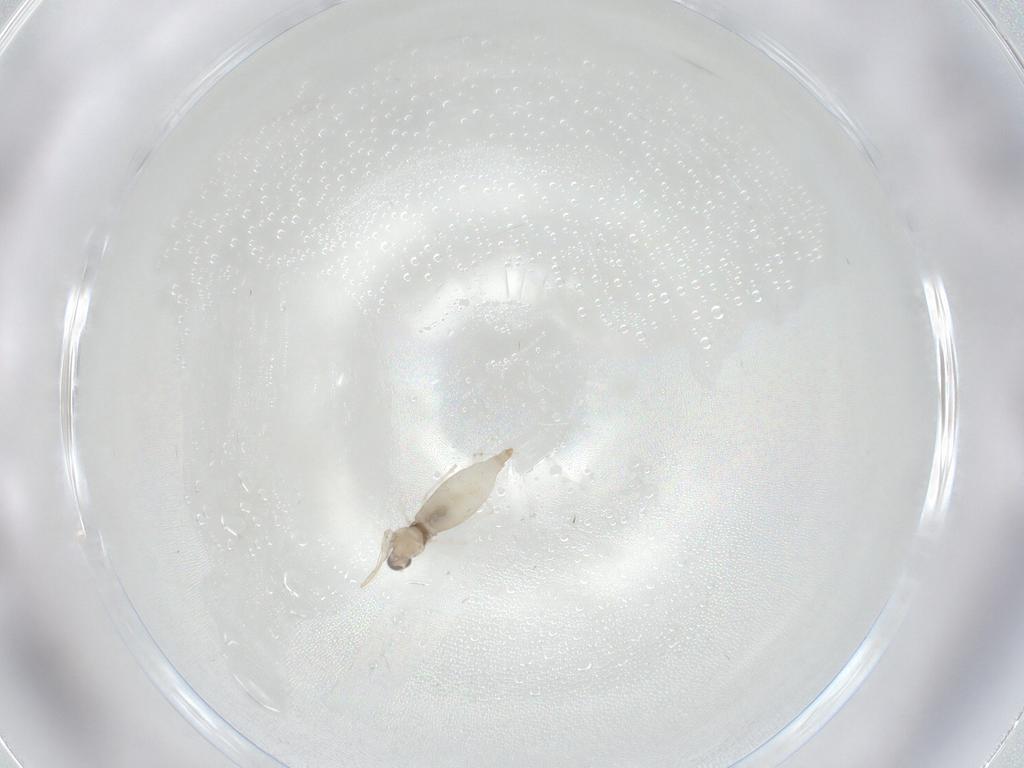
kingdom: Animalia
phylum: Arthropoda
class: Insecta
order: Diptera
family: Cecidomyiidae
